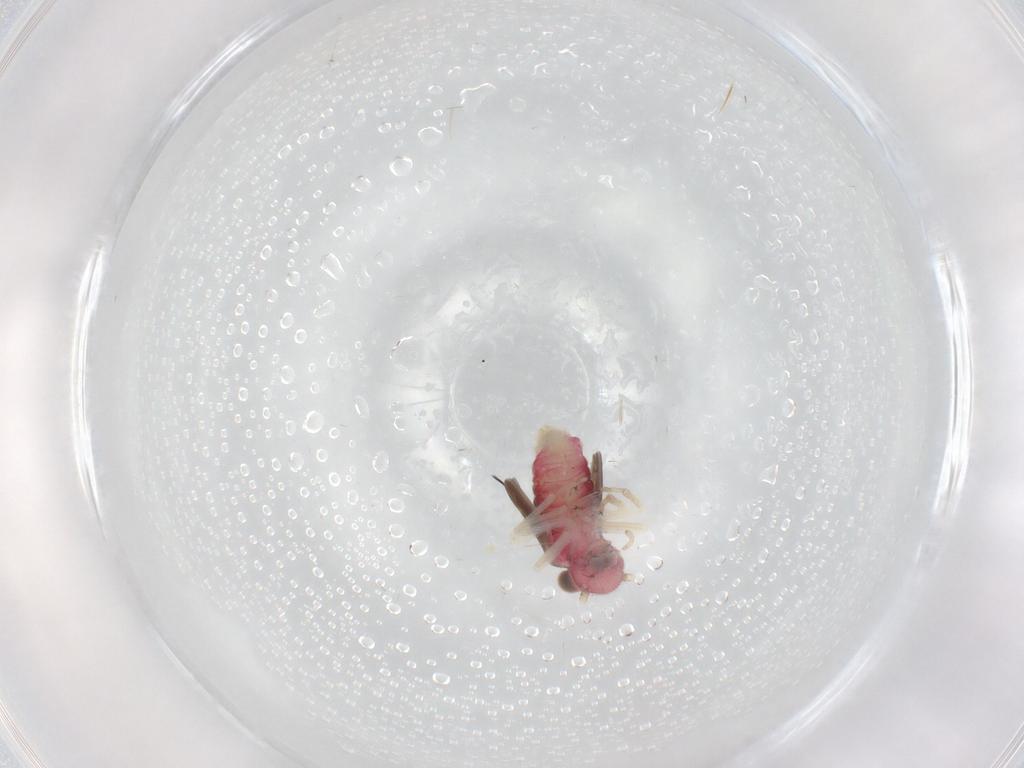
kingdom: Animalia
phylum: Arthropoda
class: Insecta
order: Psocodea
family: Caeciliusidae
